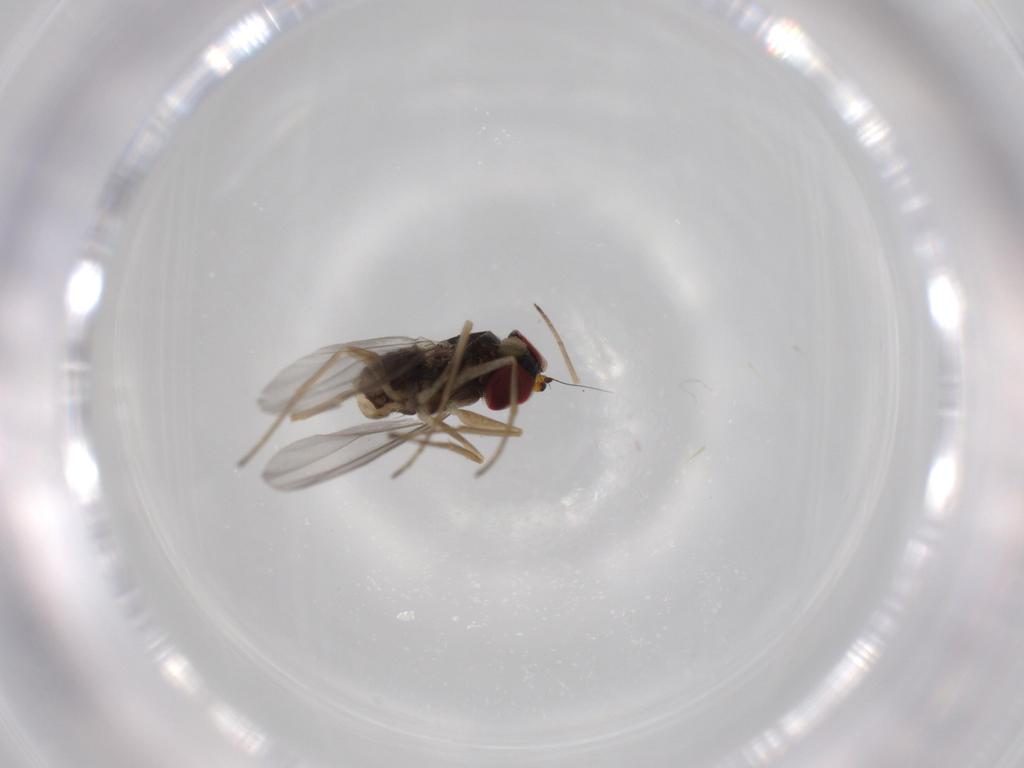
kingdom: Animalia
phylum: Arthropoda
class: Insecta
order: Diptera
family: Dolichopodidae
